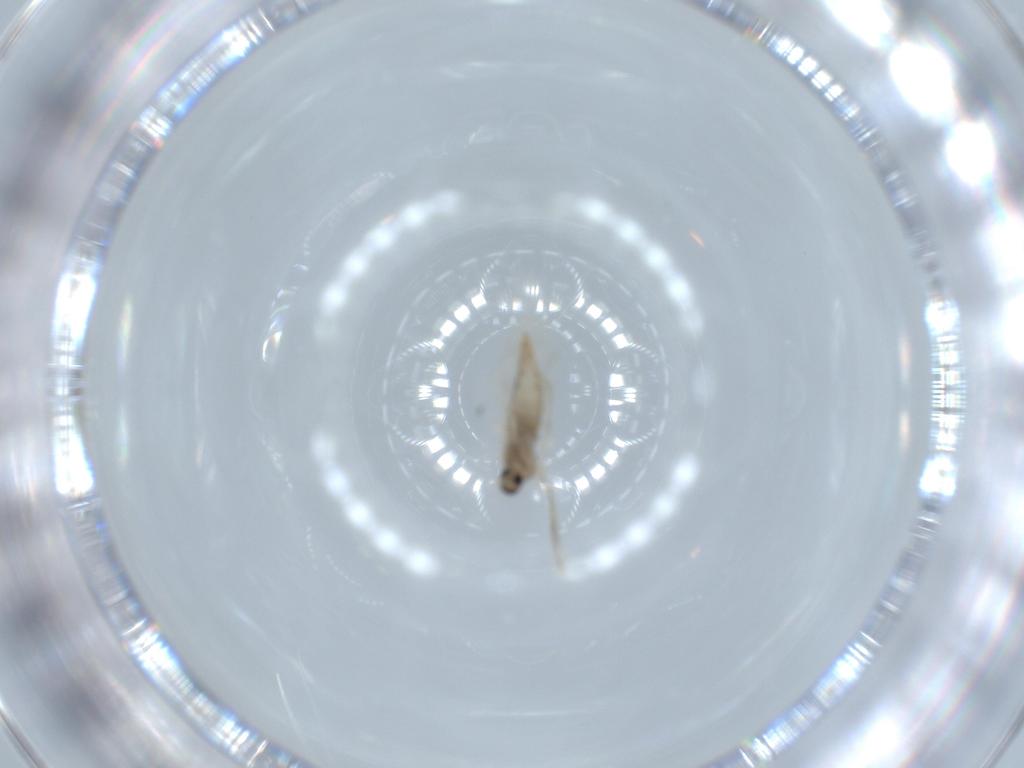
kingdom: Animalia
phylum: Arthropoda
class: Insecta
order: Diptera
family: Cecidomyiidae
